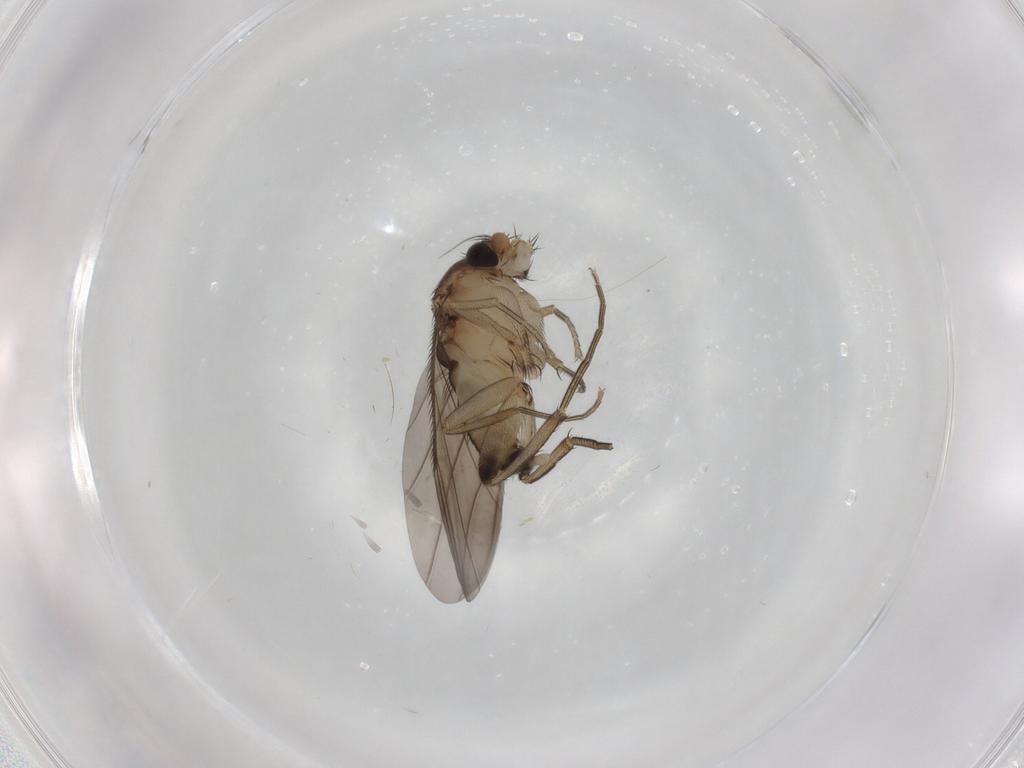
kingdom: Animalia
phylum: Arthropoda
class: Insecta
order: Diptera
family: Phoridae
